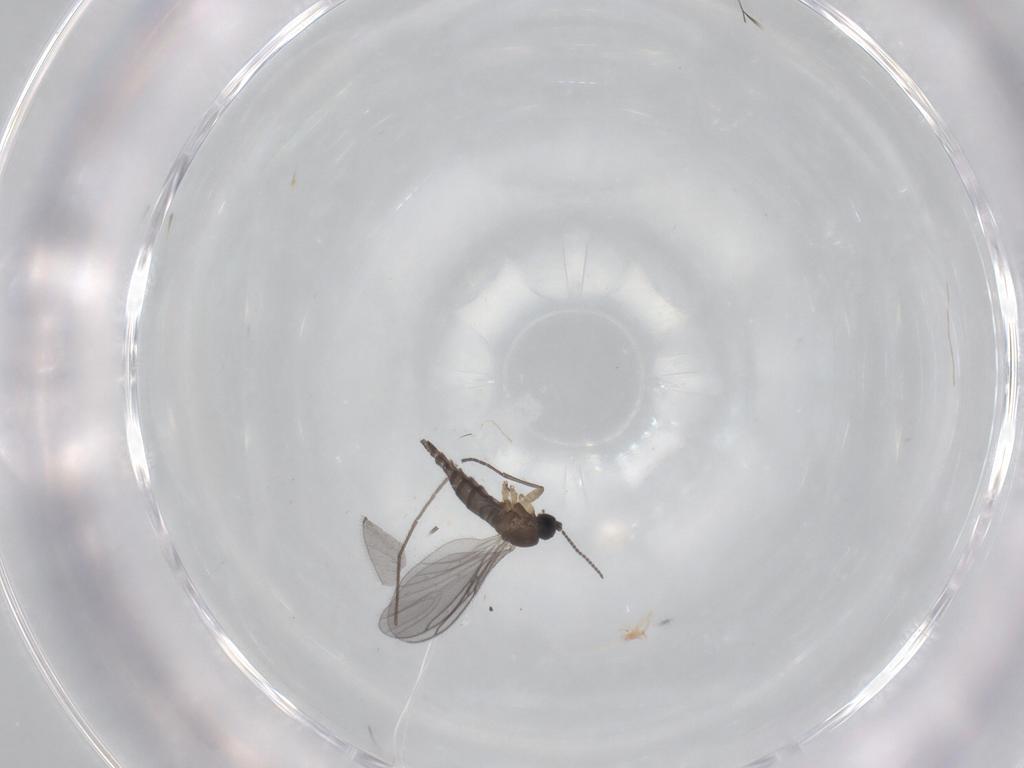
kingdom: Animalia
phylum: Arthropoda
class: Insecta
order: Diptera
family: Sciaridae
